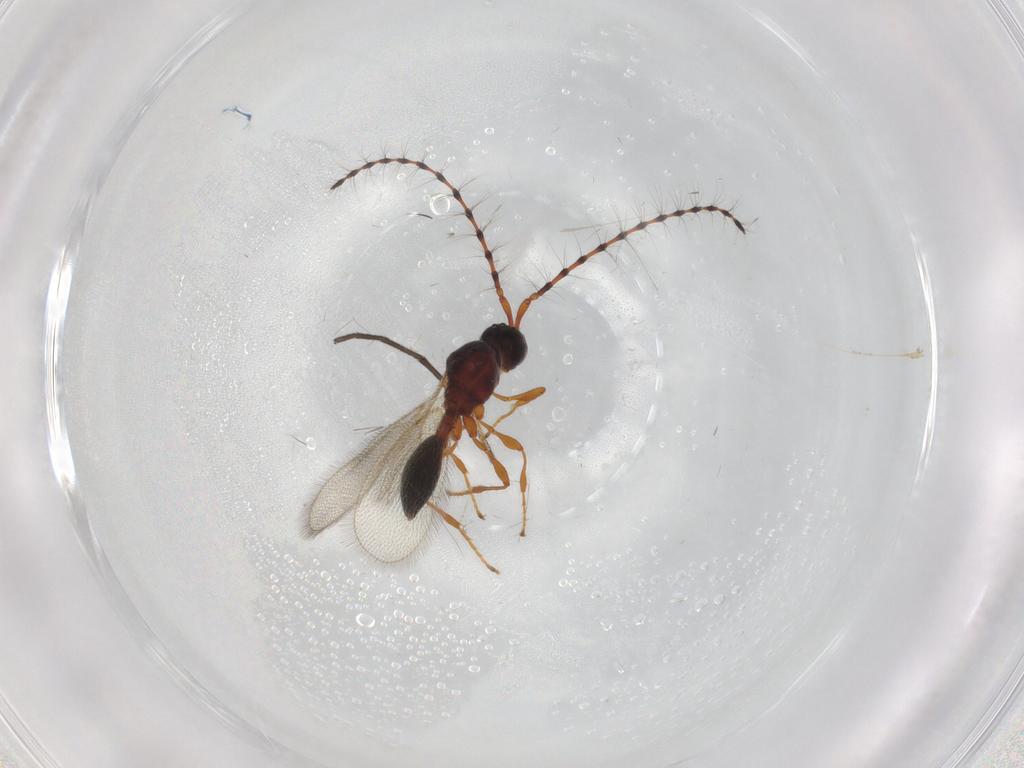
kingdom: Animalia
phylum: Arthropoda
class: Insecta
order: Hymenoptera
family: Diapriidae
